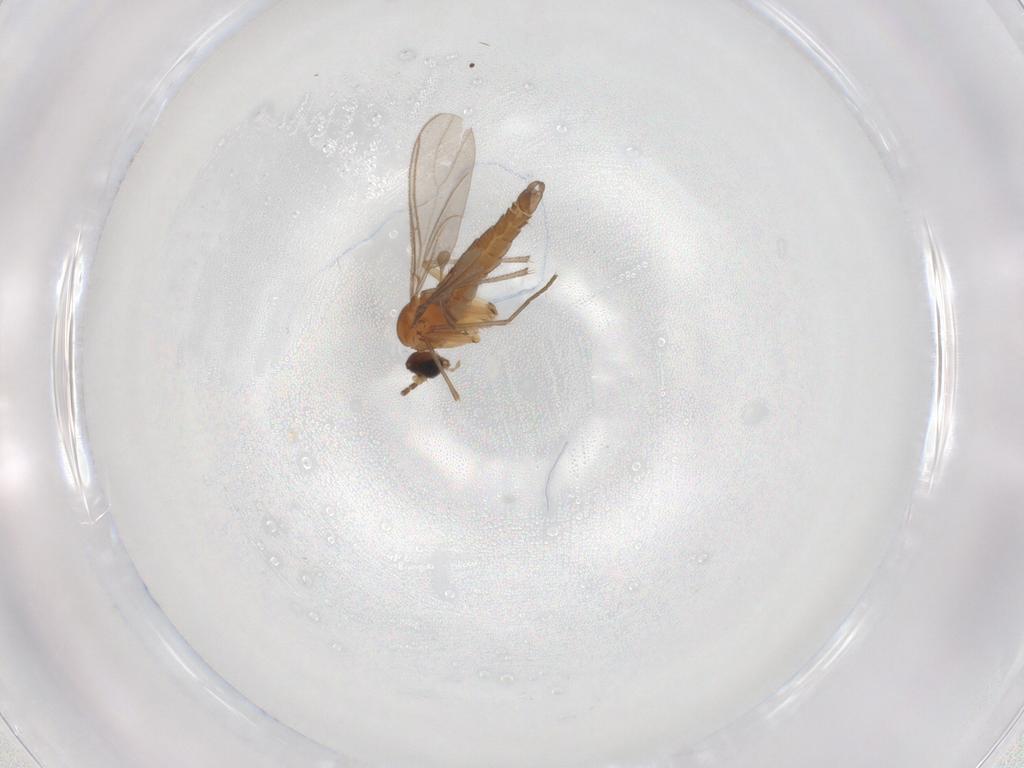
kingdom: Animalia
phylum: Arthropoda
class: Insecta
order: Diptera
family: Sciaridae
